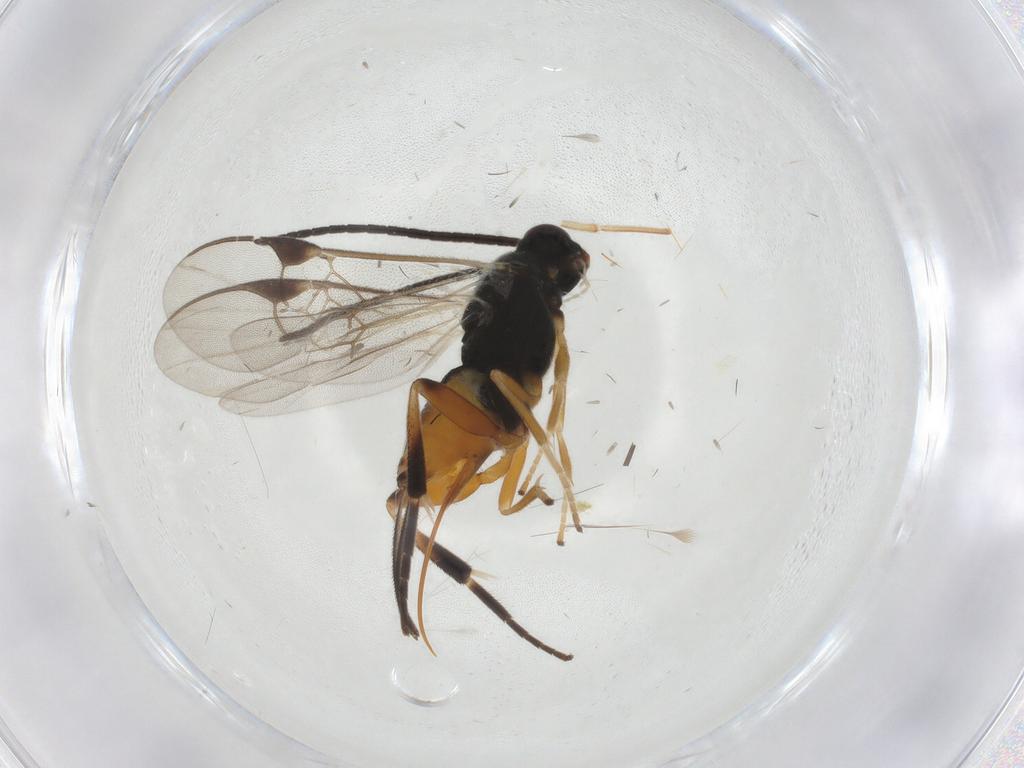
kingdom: Animalia
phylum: Arthropoda
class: Insecta
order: Hymenoptera
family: Braconidae
